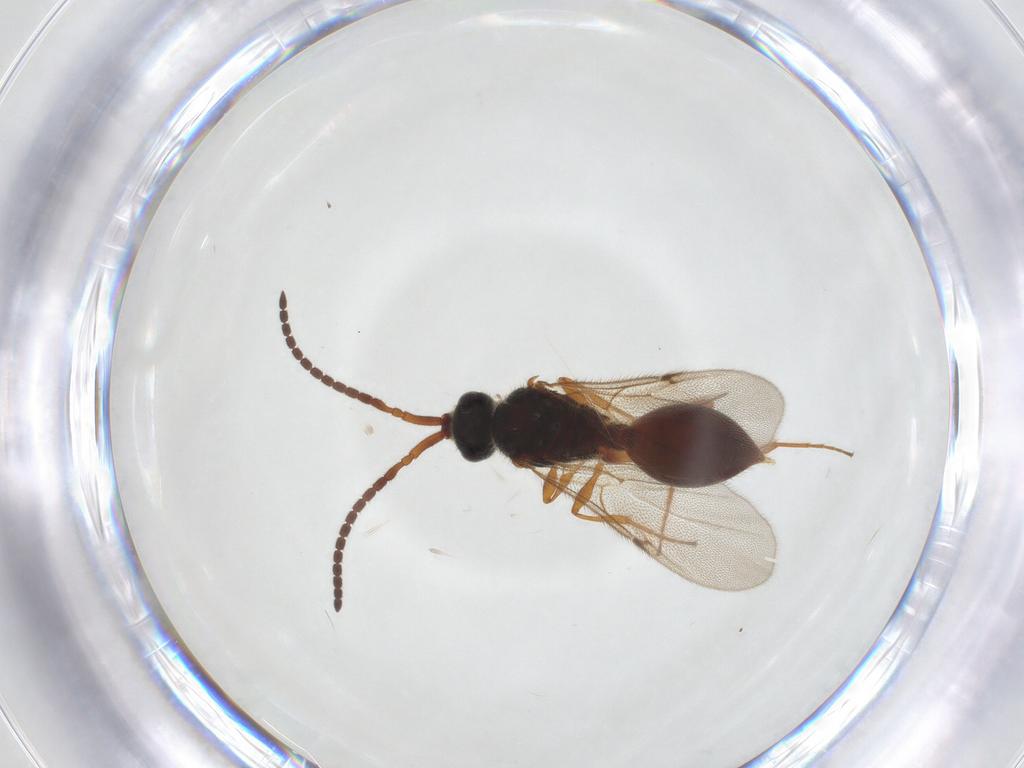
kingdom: Animalia
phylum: Arthropoda
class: Insecta
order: Hymenoptera
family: Diapriidae
